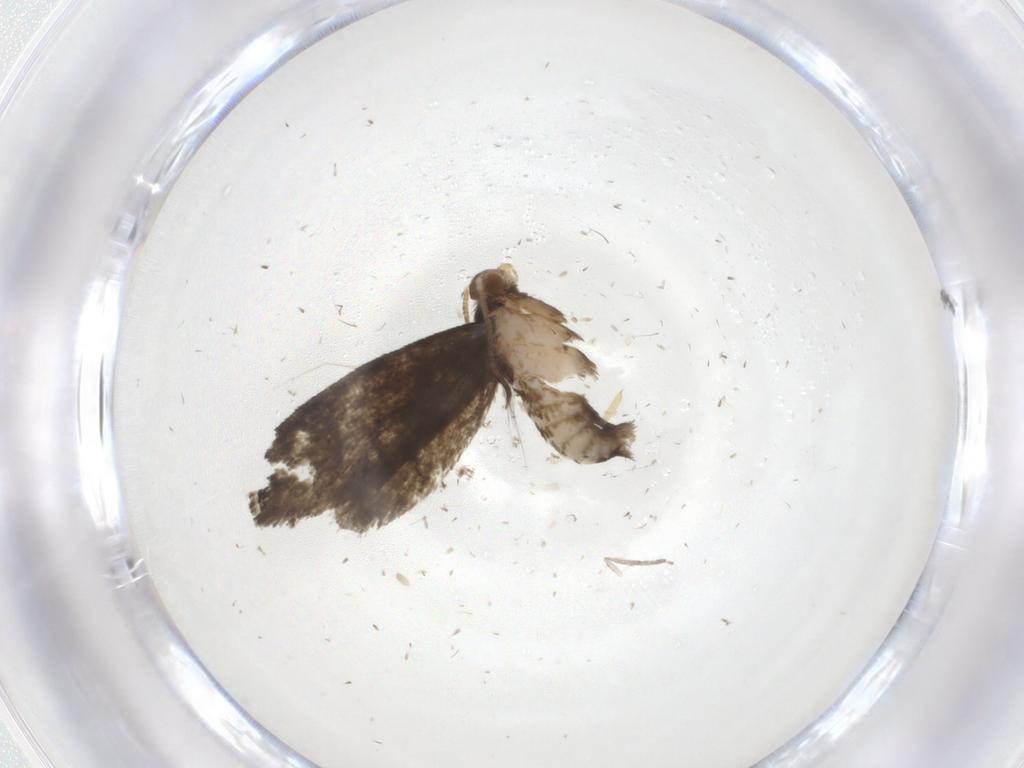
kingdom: Animalia
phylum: Arthropoda
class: Insecta
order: Lepidoptera
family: Tineidae
